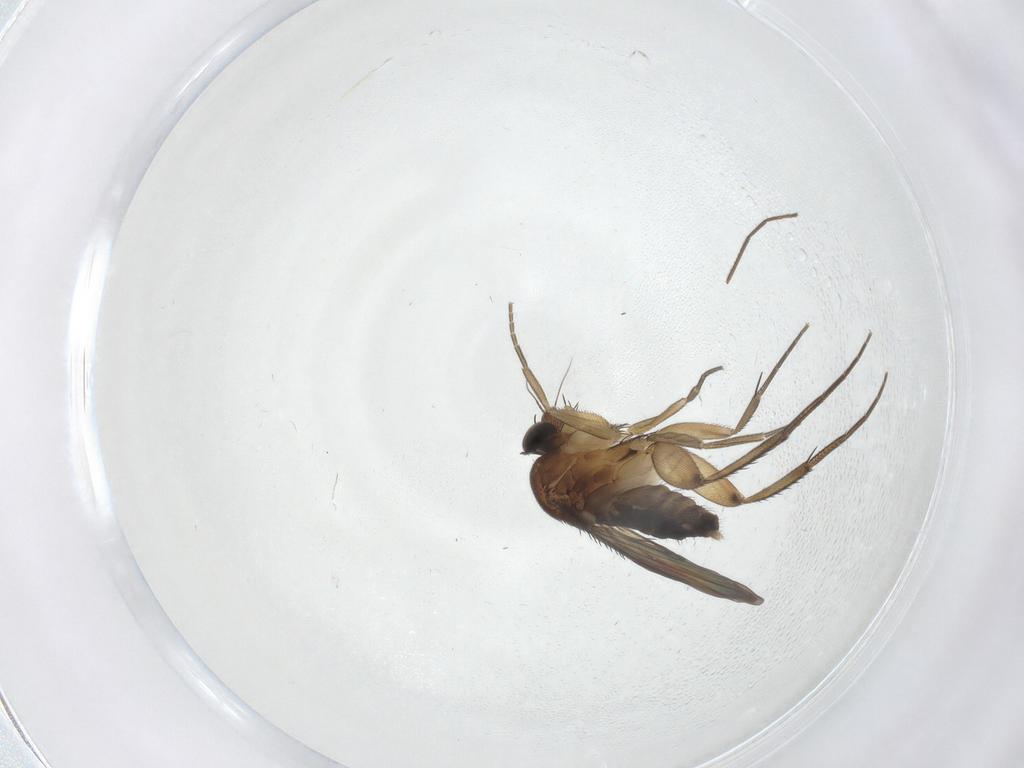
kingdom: Animalia
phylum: Arthropoda
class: Insecta
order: Diptera
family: Phoridae
